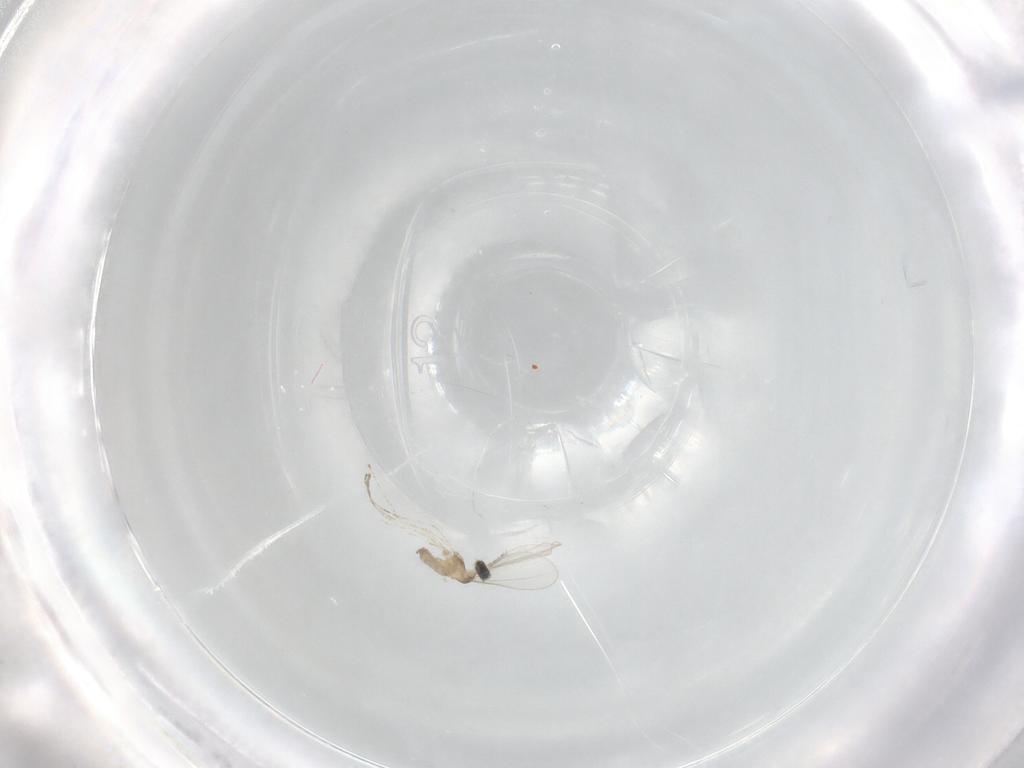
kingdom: Animalia
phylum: Arthropoda
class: Insecta
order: Diptera
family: Cecidomyiidae
